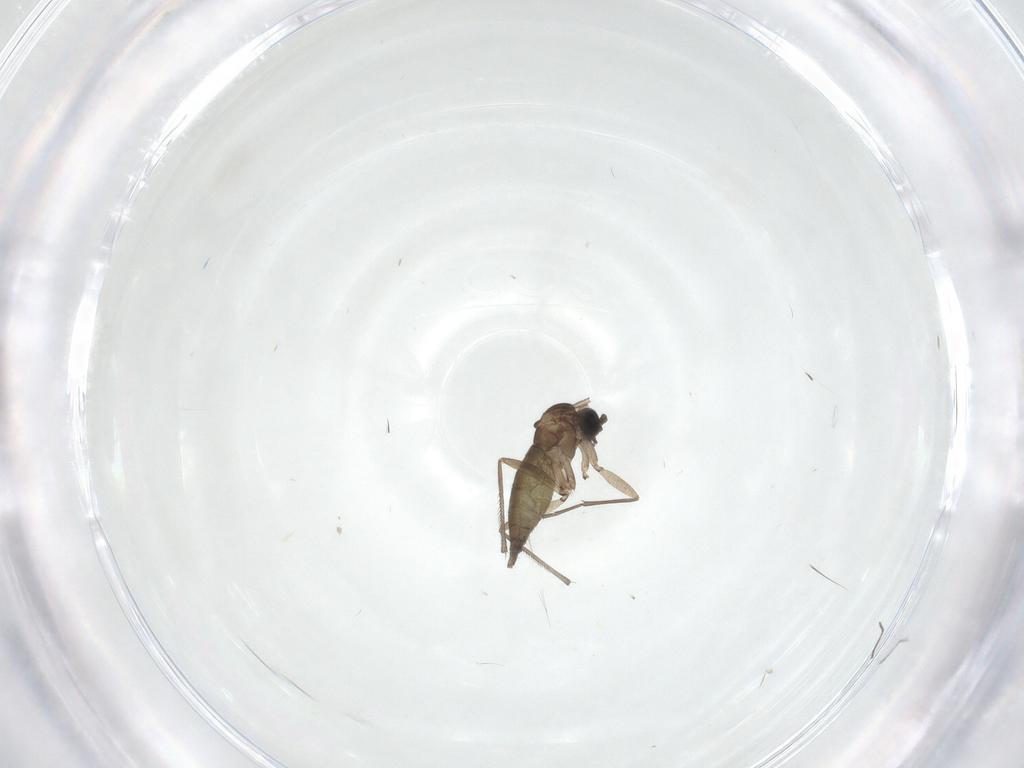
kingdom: Animalia
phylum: Arthropoda
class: Insecta
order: Diptera
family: Sciaridae
